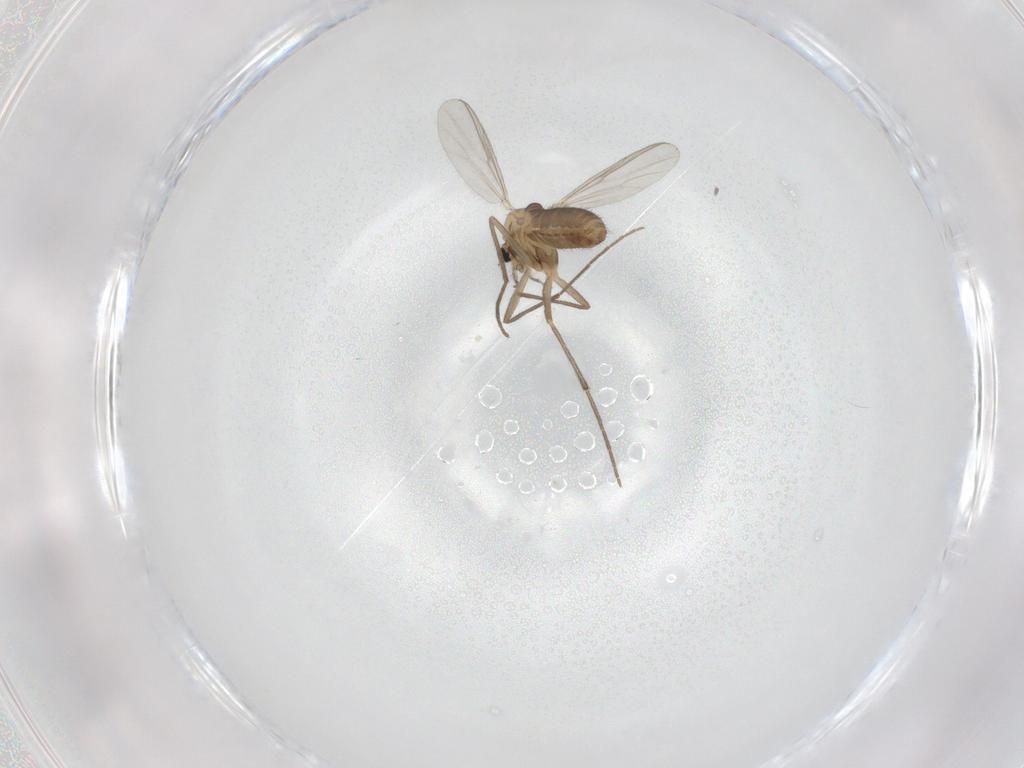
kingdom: Animalia
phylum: Arthropoda
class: Insecta
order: Diptera
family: Chironomidae
